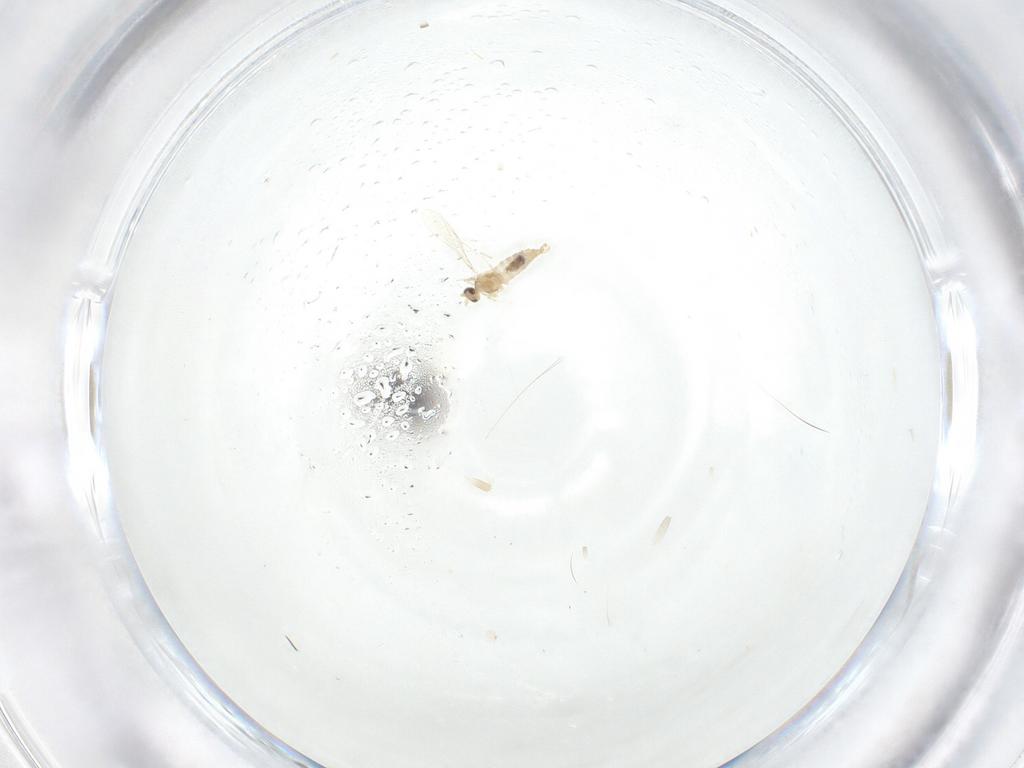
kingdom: Animalia
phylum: Arthropoda
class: Insecta
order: Diptera
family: Cecidomyiidae
